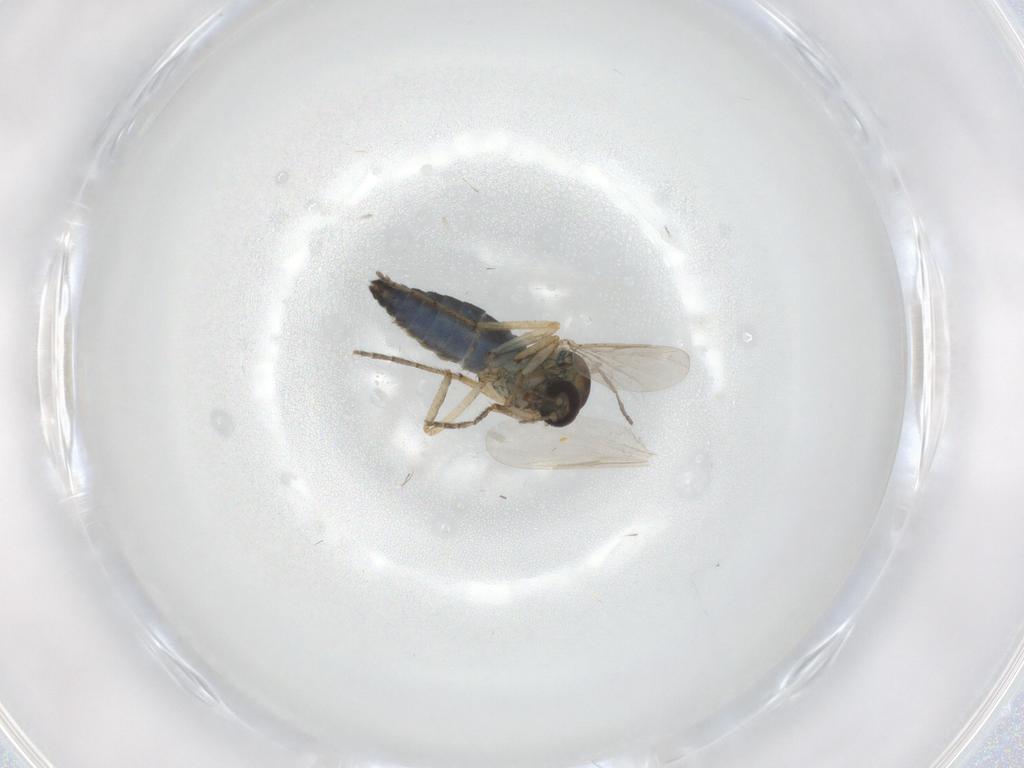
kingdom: Animalia
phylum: Arthropoda
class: Insecta
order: Diptera
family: Ceratopogonidae
